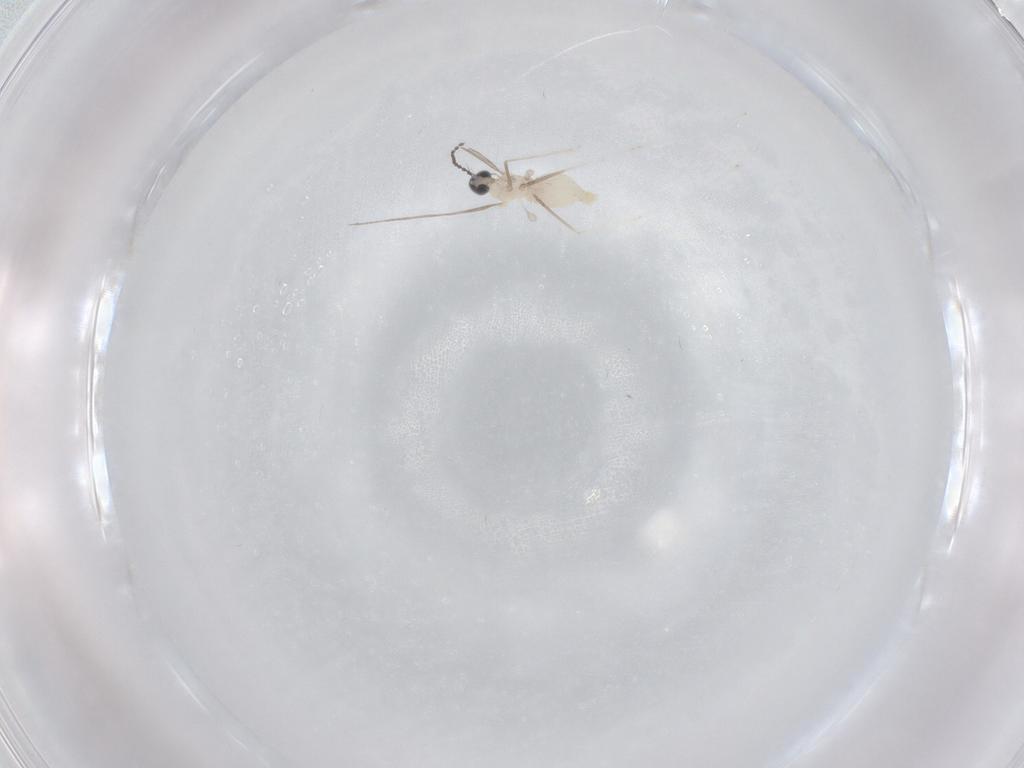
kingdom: Animalia
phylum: Arthropoda
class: Insecta
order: Diptera
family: Cecidomyiidae
